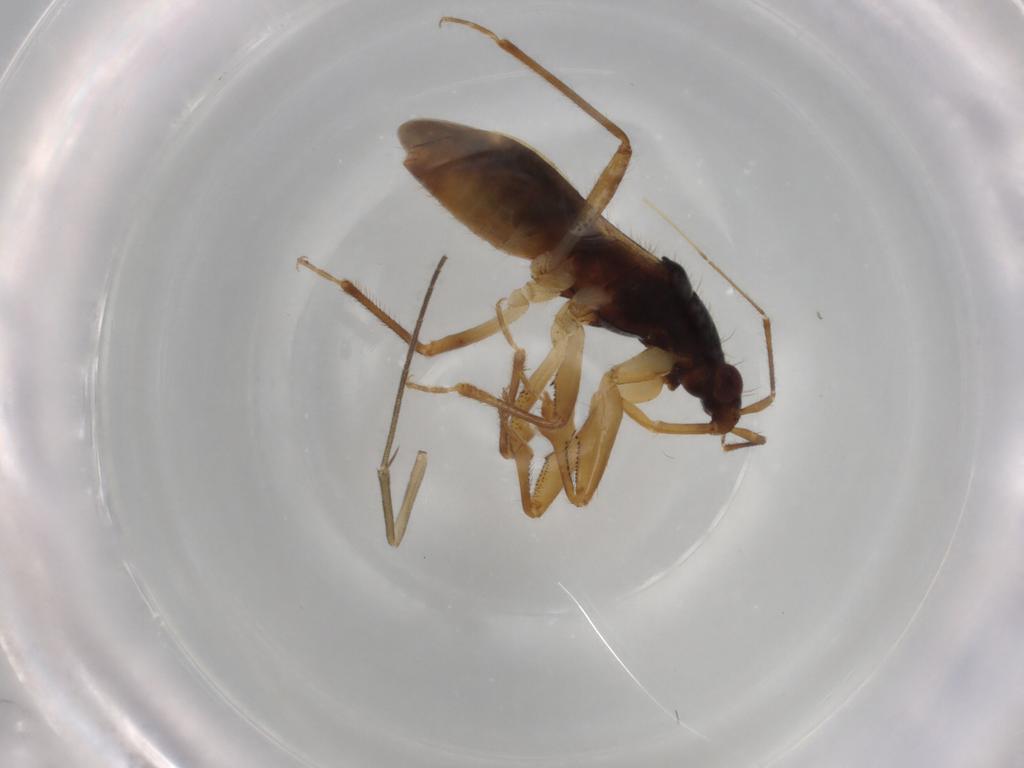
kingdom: Animalia
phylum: Arthropoda
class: Insecta
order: Hemiptera
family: Nabidae
